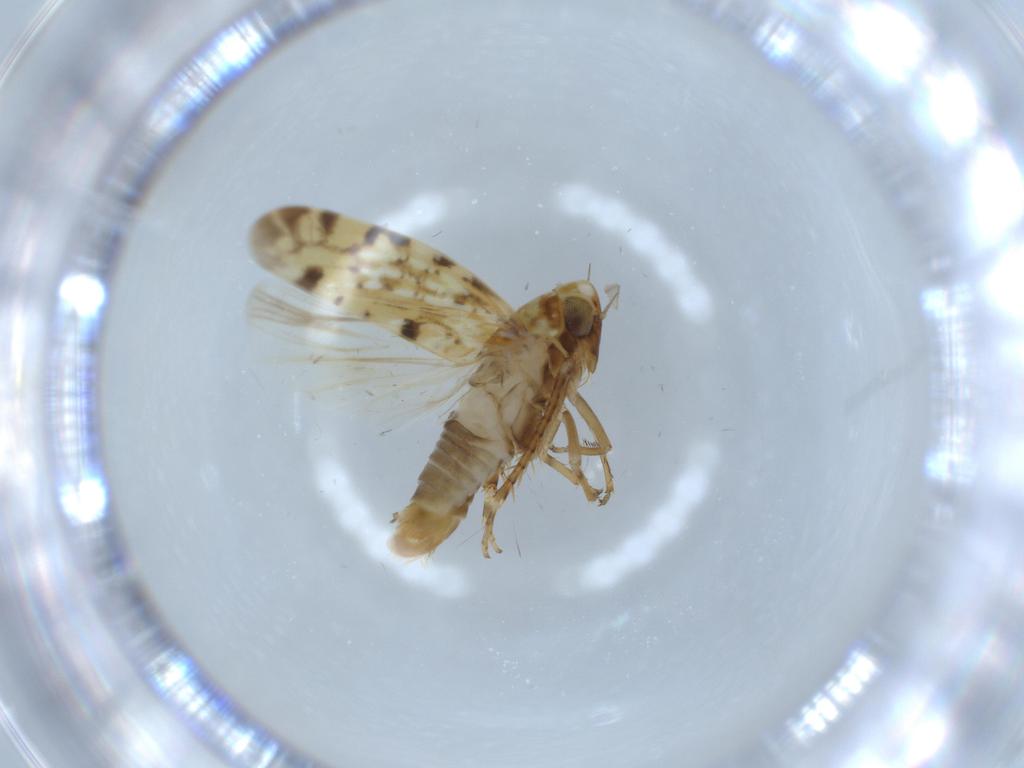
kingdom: Animalia
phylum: Arthropoda
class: Insecta
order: Hemiptera
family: Cicadellidae
